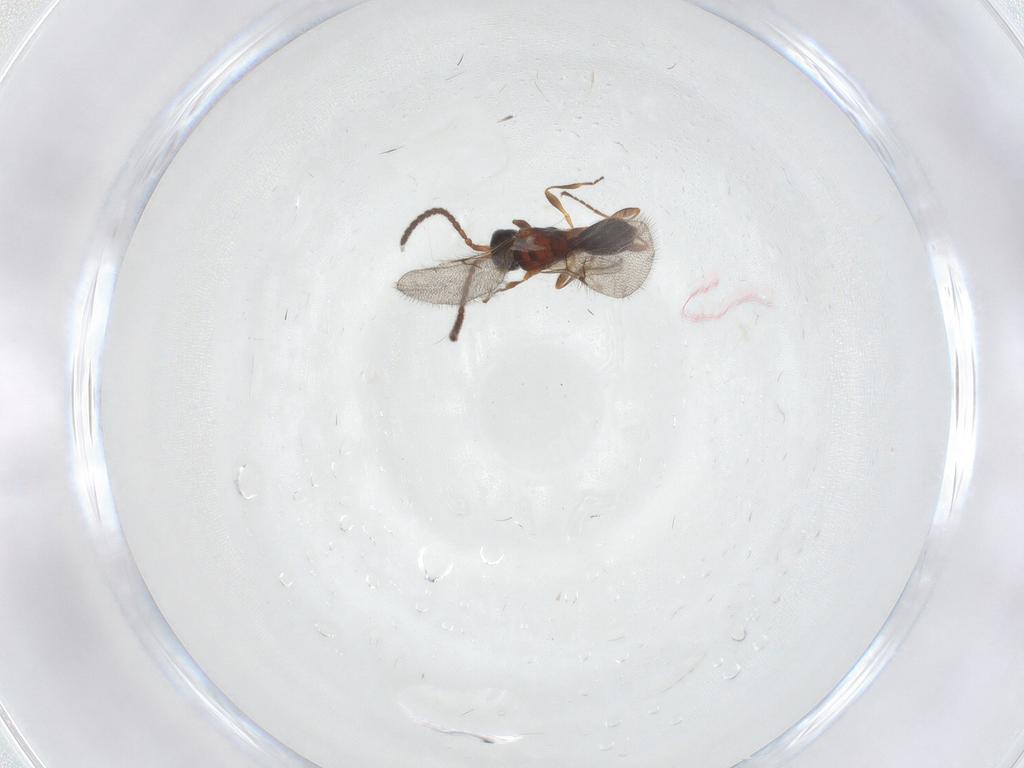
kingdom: Animalia
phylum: Arthropoda
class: Insecta
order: Hymenoptera
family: Diapriidae
